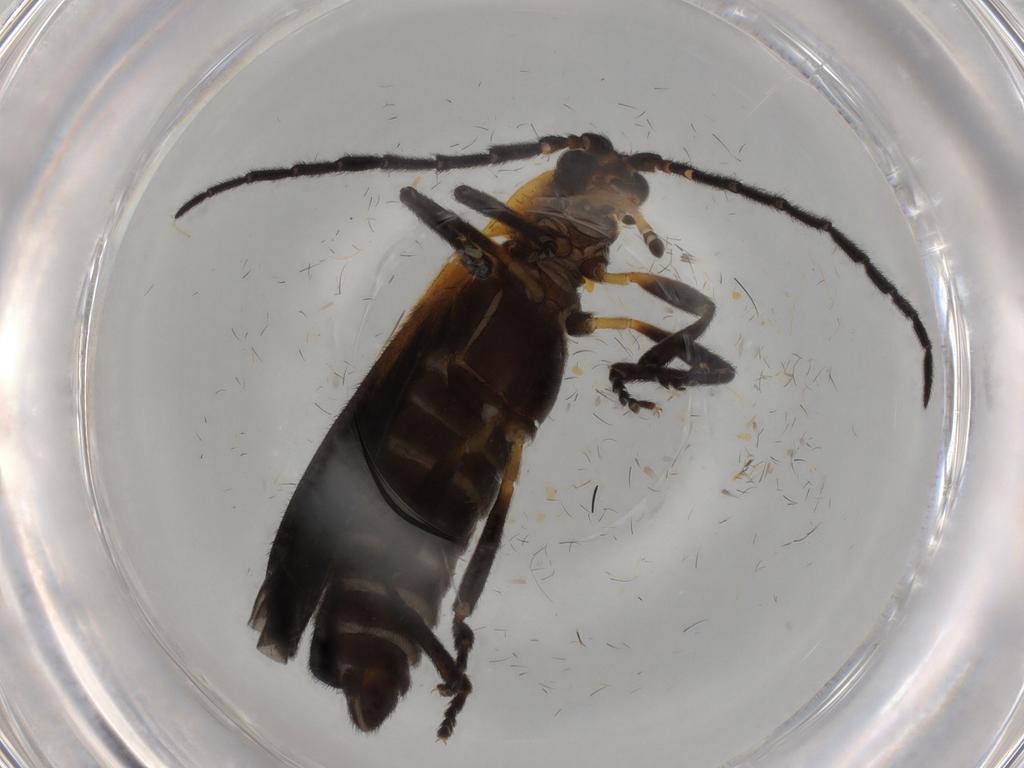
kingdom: Animalia
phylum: Arthropoda
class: Insecta
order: Coleoptera
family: Lycidae
